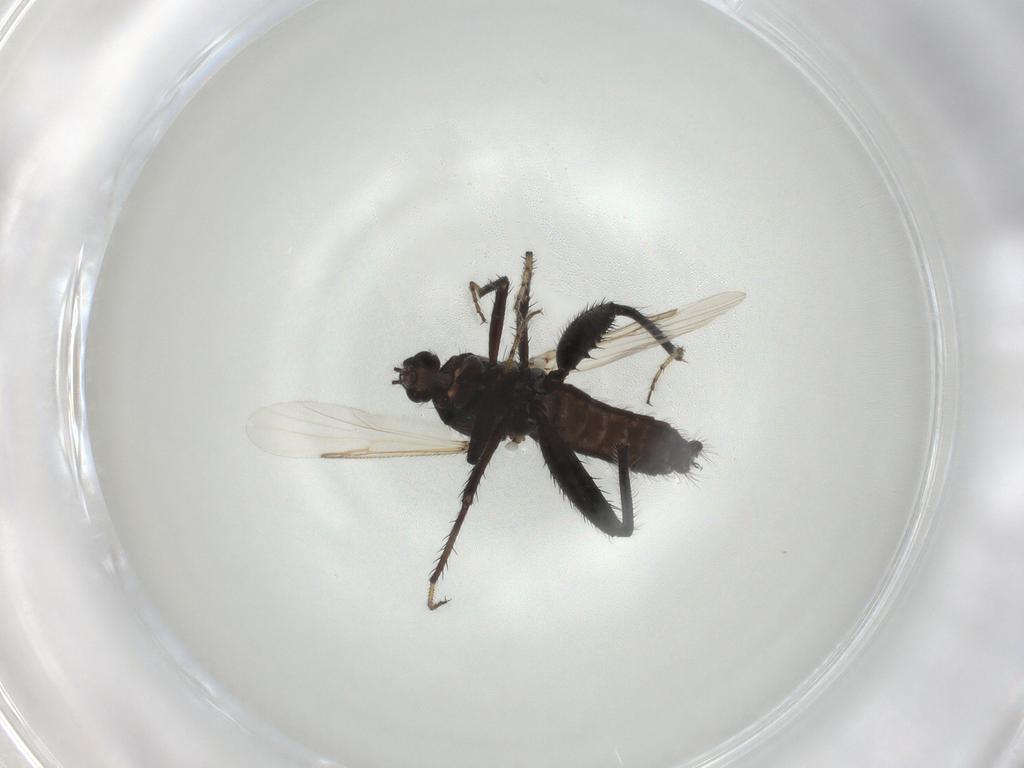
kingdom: Animalia
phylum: Arthropoda
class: Insecta
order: Diptera
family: Ceratopogonidae
